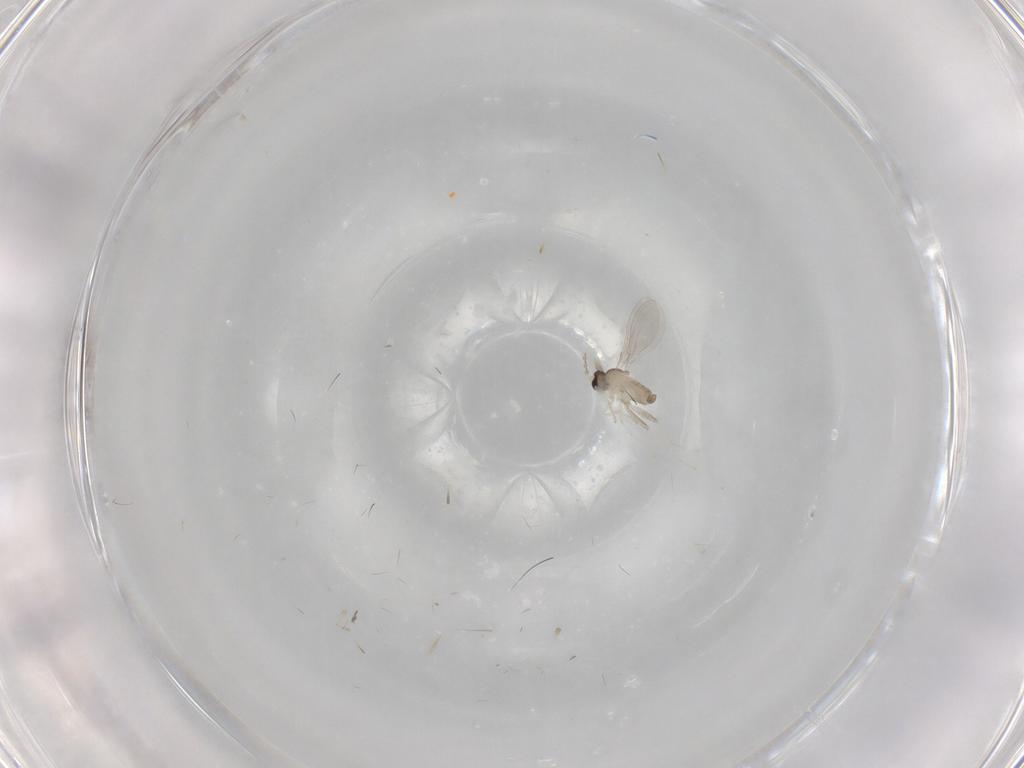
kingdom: Animalia
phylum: Arthropoda
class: Insecta
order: Diptera
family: Cecidomyiidae
